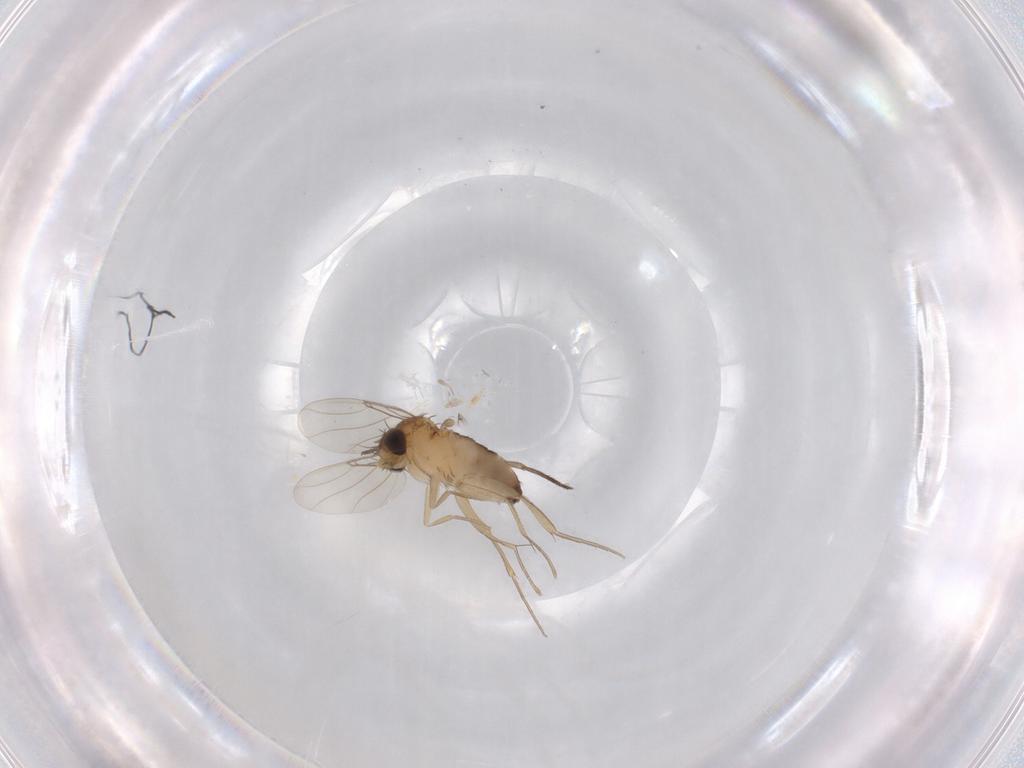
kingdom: Animalia
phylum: Arthropoda
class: Insecta
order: Diptera
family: Phoridae
